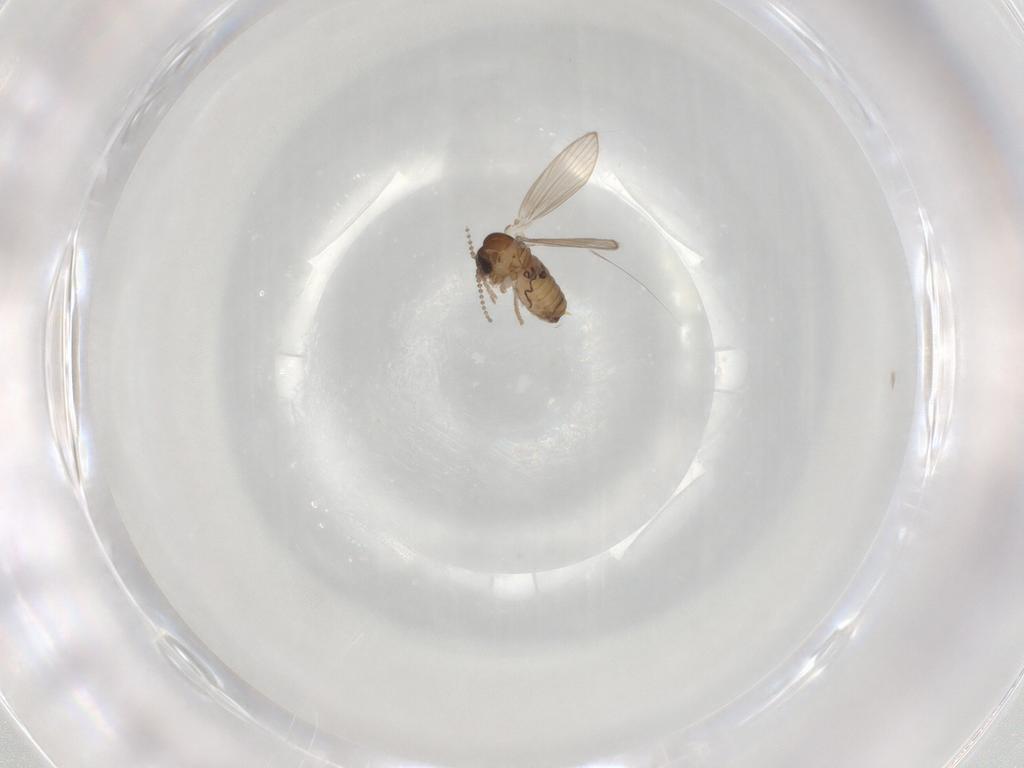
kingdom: Animalia
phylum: Arthropoda
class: Insecta
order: Diptera
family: Psychodidae
